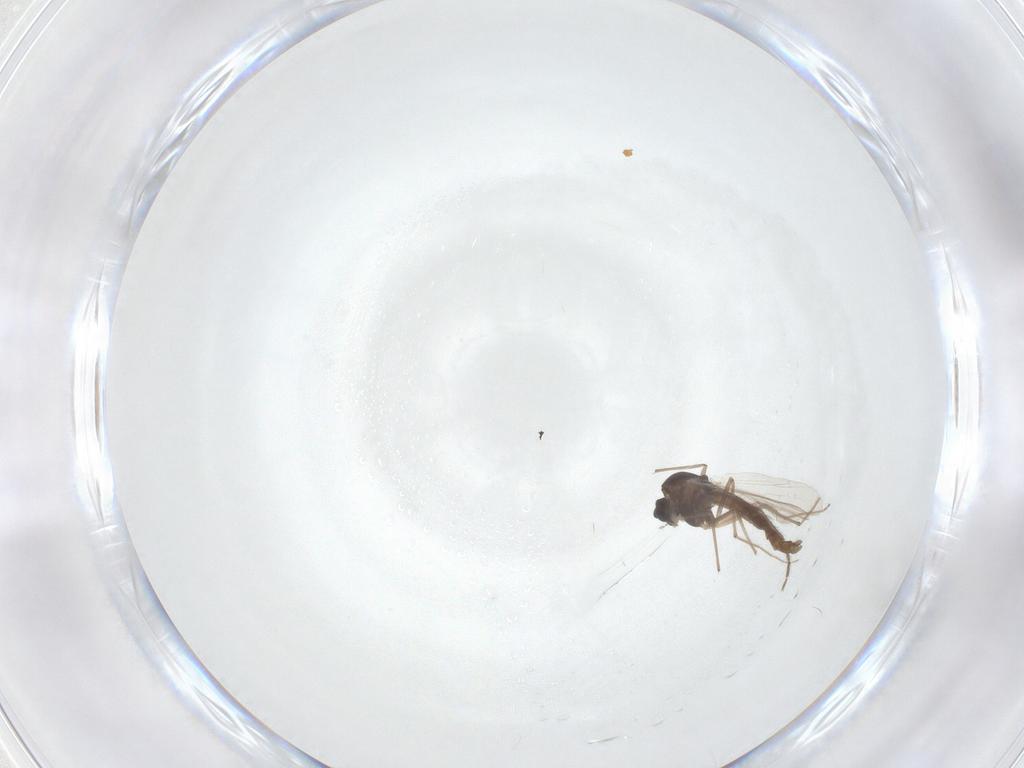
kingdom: Animalia
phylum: Arthropoda
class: Insecta
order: Diptera
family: Chironomidae
